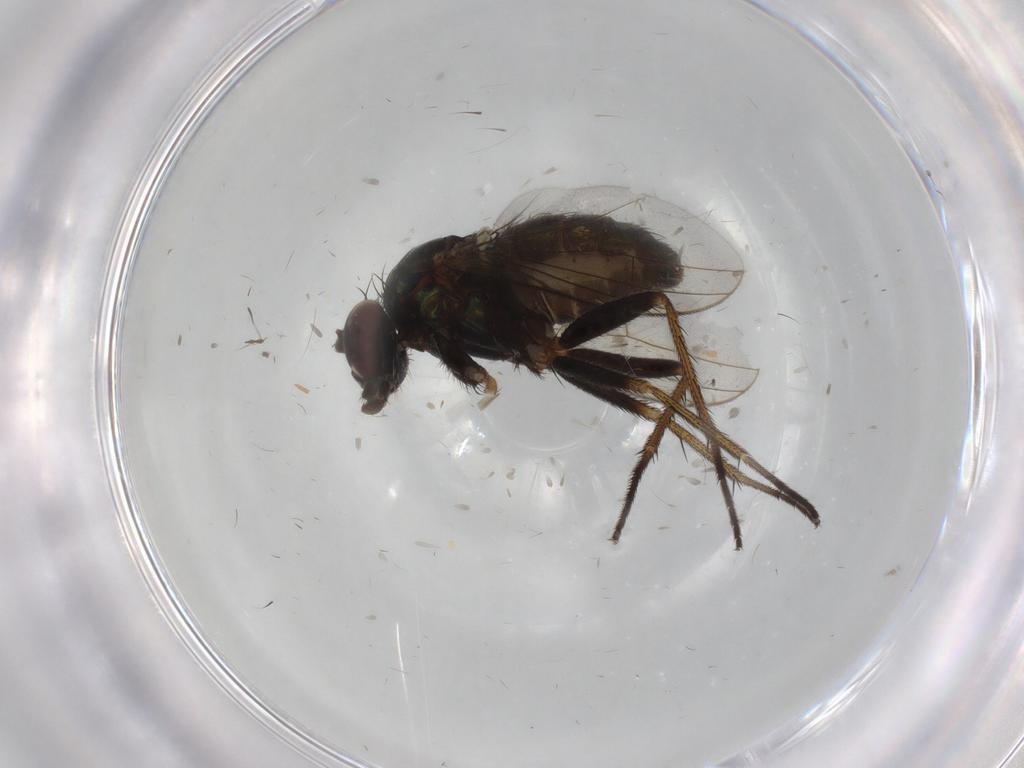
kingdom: Animalia
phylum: Arthropoda
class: Insecta
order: Diptera
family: Dolichopodidae
